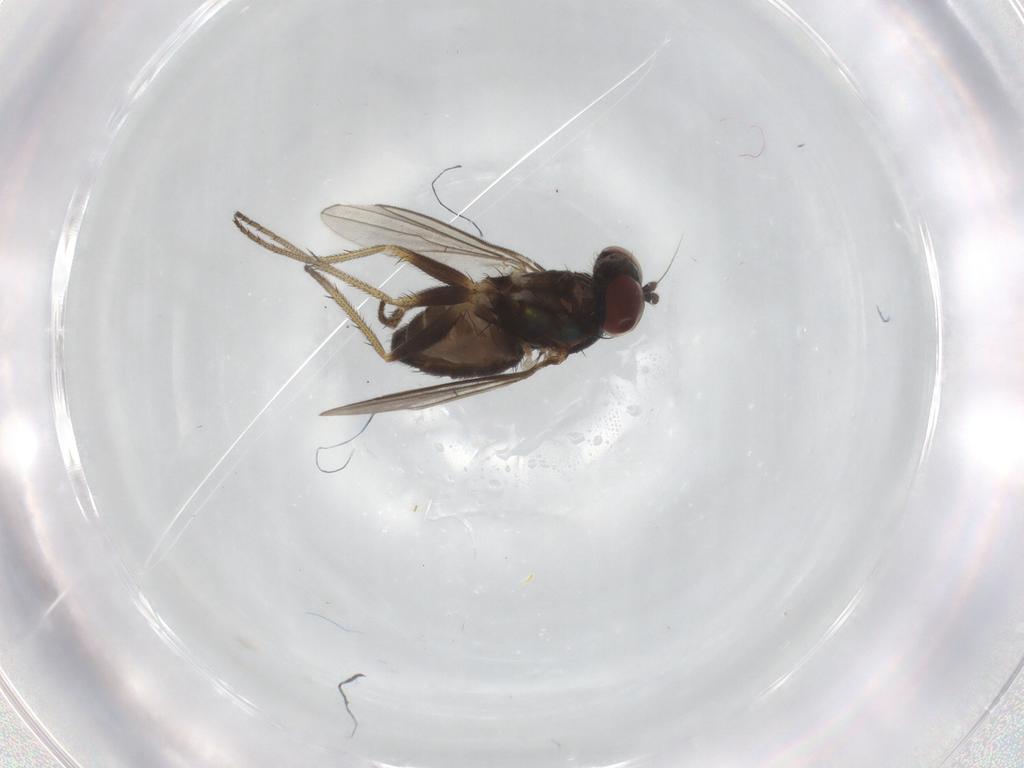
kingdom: Animalia
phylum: Arthropoda
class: Insecta
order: Diptera
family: Dolichopodidae
